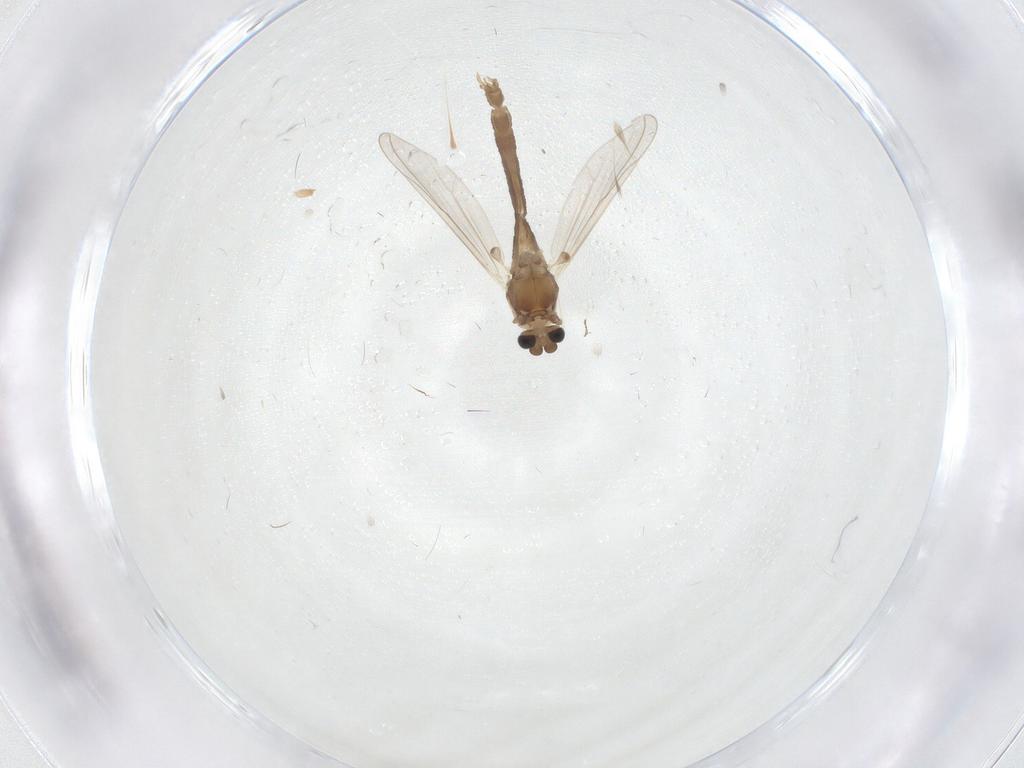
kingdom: Animalia
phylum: Arthropoda
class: Insecta
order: Diptera
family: Chironomidae
